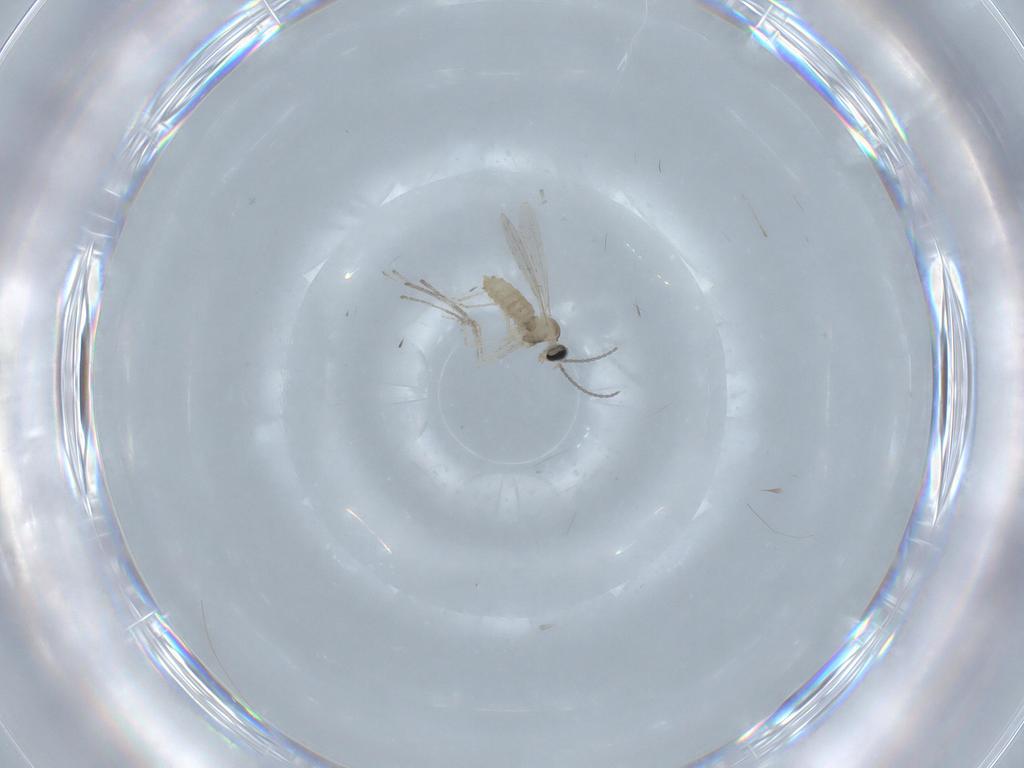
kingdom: Animalia
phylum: Arthropoda
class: Insecta
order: Diptera
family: Cecidomyiidae
